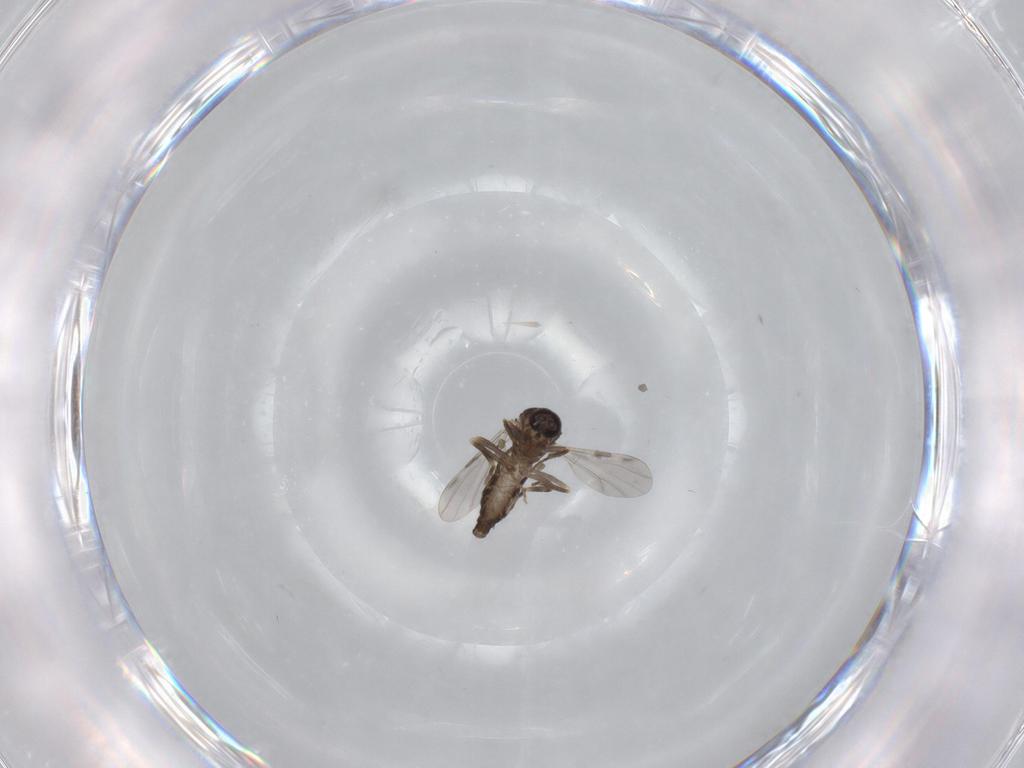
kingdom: Animalia
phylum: Arthropoda
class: Insecta
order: Diptera
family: Ceratopogonidae
